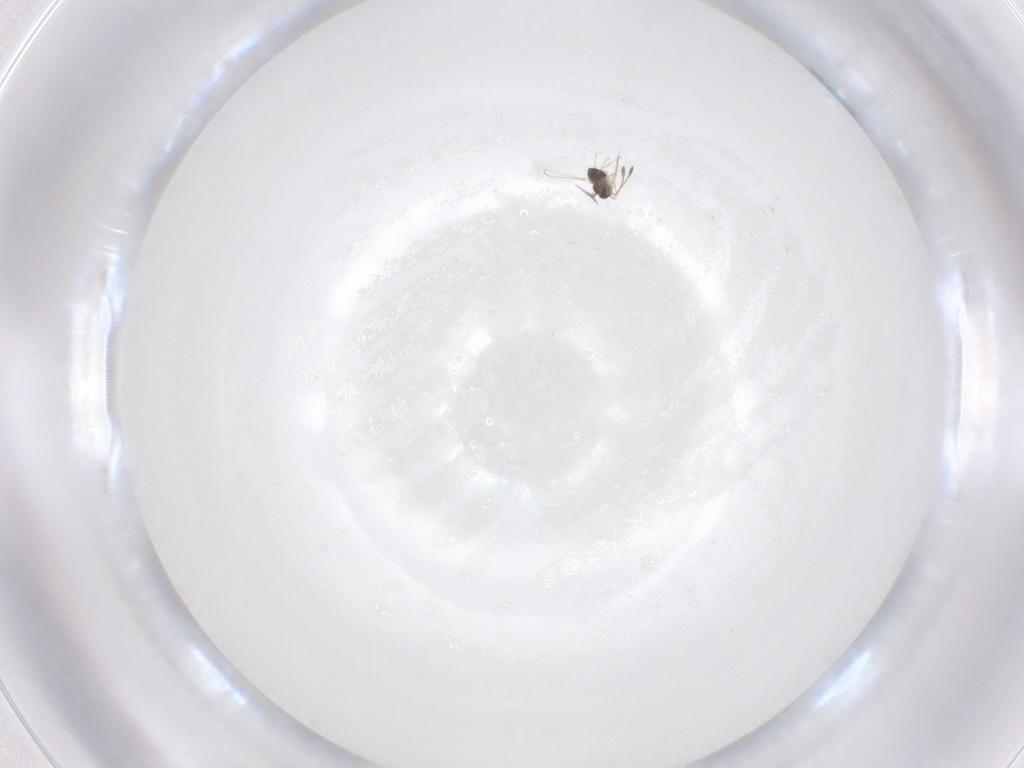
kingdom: Animalia
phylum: Arthropoda
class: Insecta
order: Hymenoptera
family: Mymaridae
